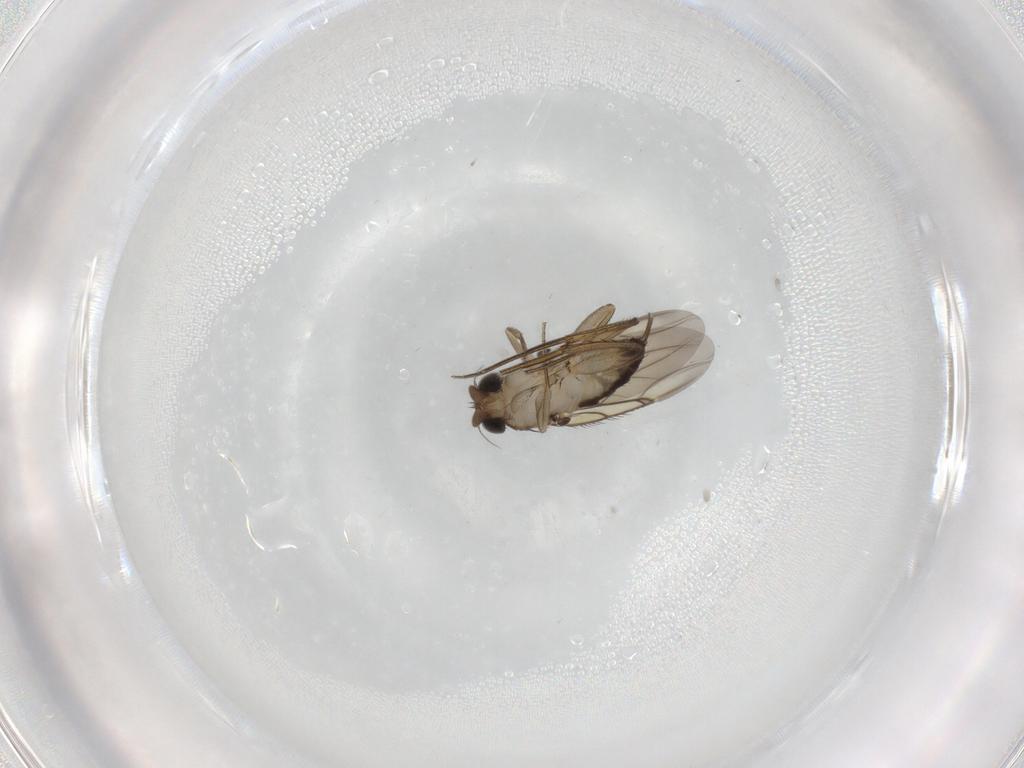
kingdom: Animalia
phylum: Arthropoda
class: Insecta
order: Diptera
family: Phoridae
